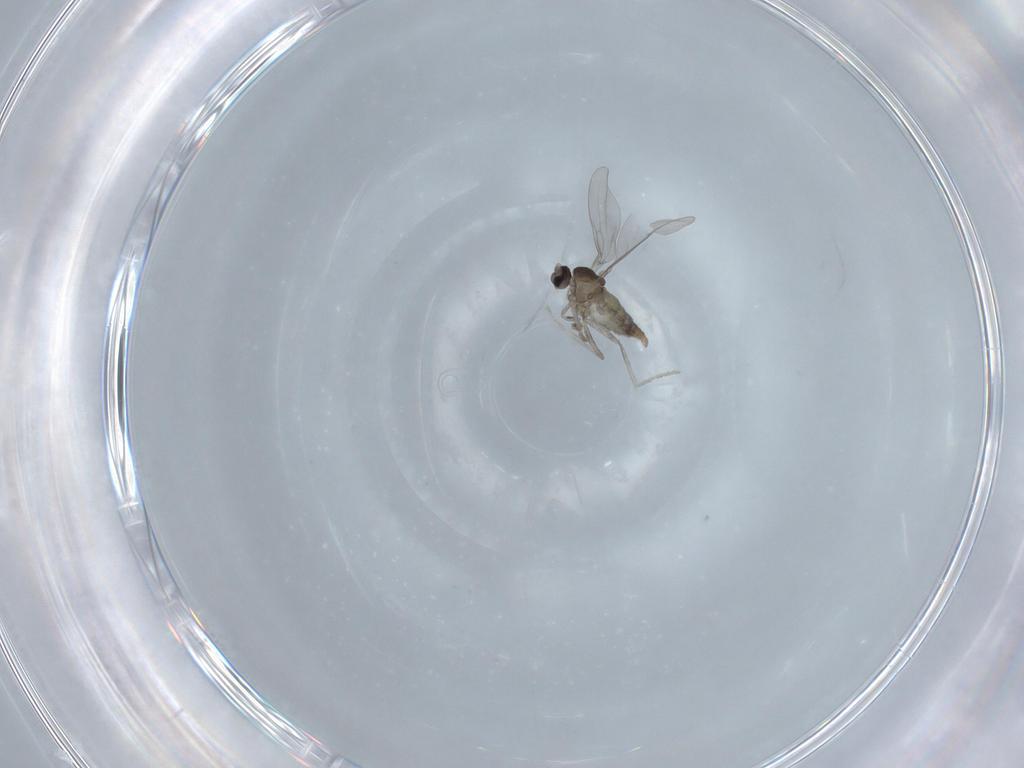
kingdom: Animalia
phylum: Arthropoda
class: Insecta
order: Diptera
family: Cecidomyiidae
